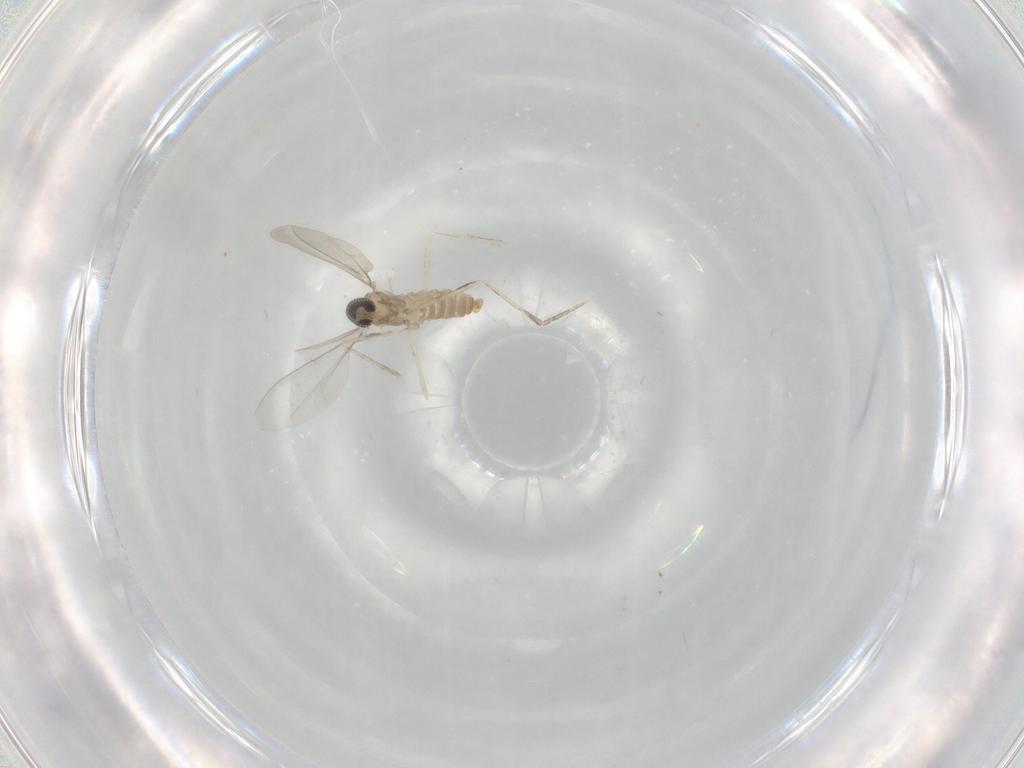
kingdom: Animalia
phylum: Arthropoda
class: Insecta
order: Diptera
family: Cecidomyiidae
